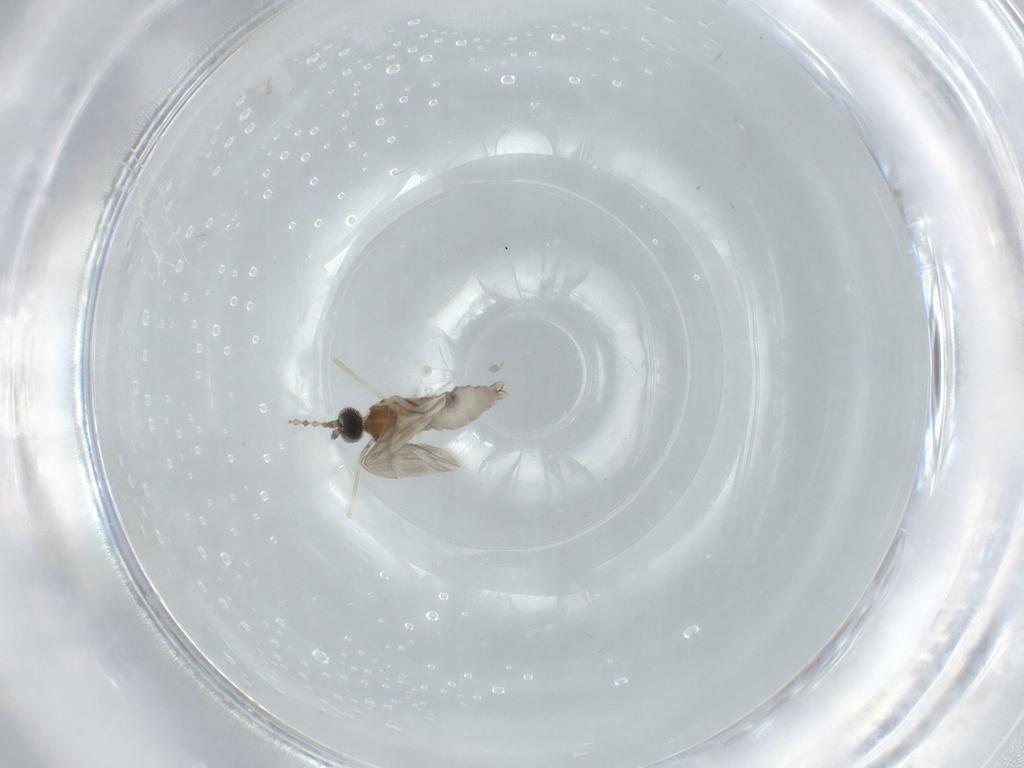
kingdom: Animalia
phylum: Arthropoda
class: Insecta
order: Diptera
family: Cecidomyiidae
